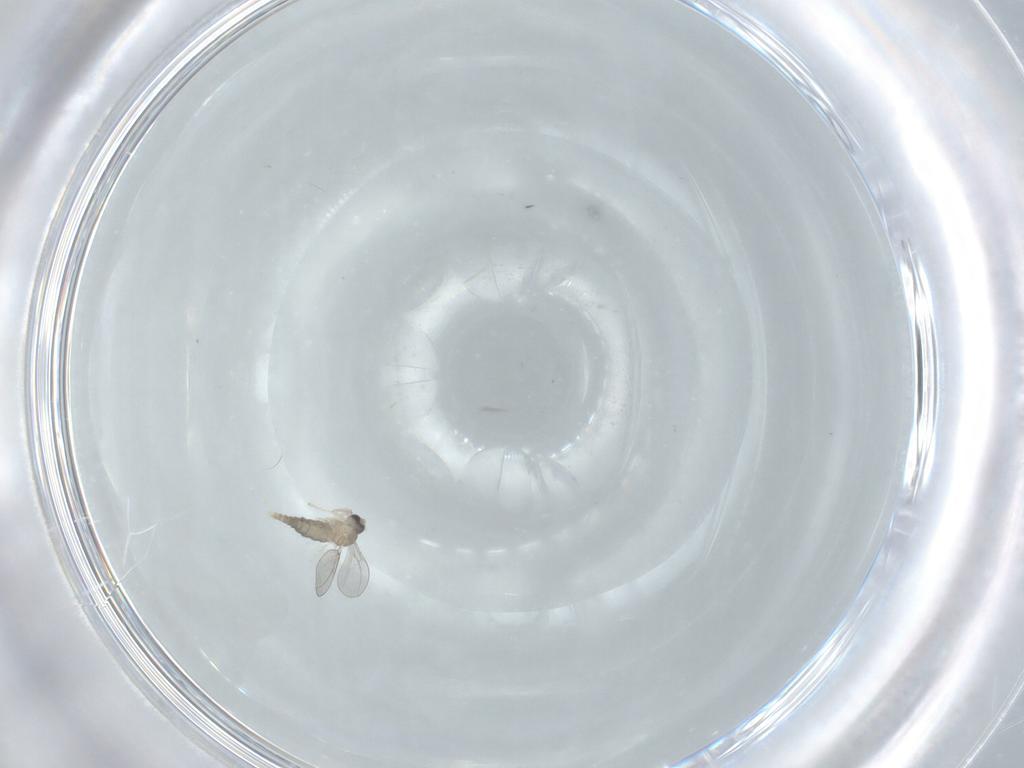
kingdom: Animalia
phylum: Arthropoda
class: Insecta
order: Diptera
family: Cecidomyiidae
